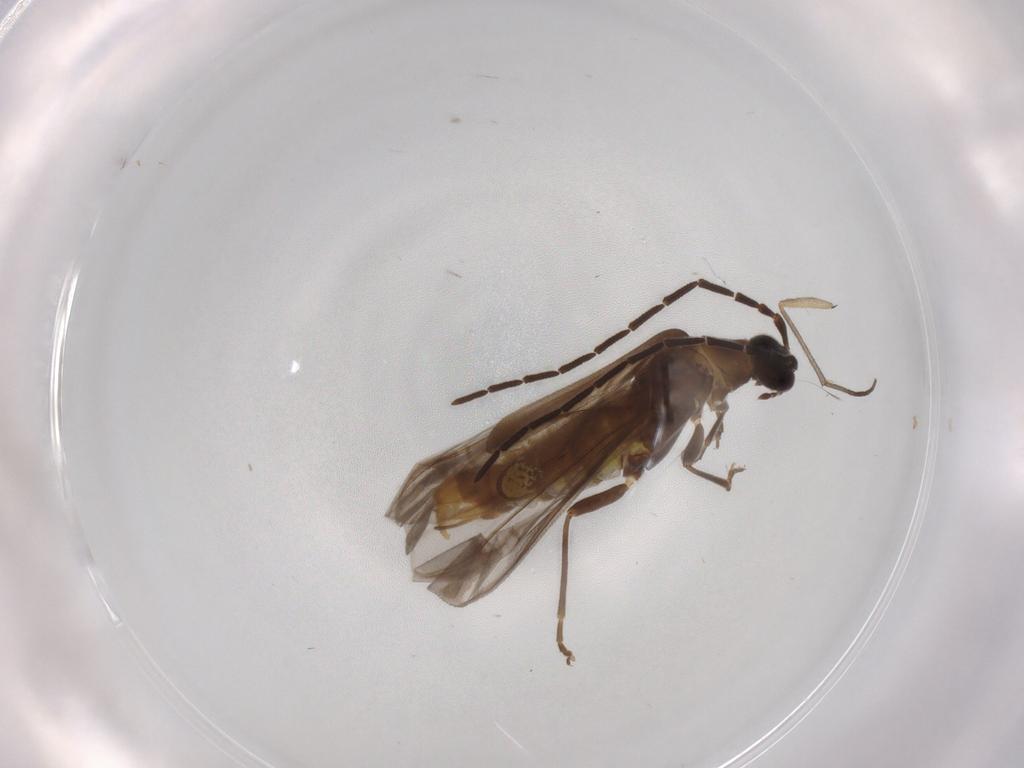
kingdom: Animalia
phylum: Arthropoda
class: Insecta
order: Coleoptera
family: Cantharidae
